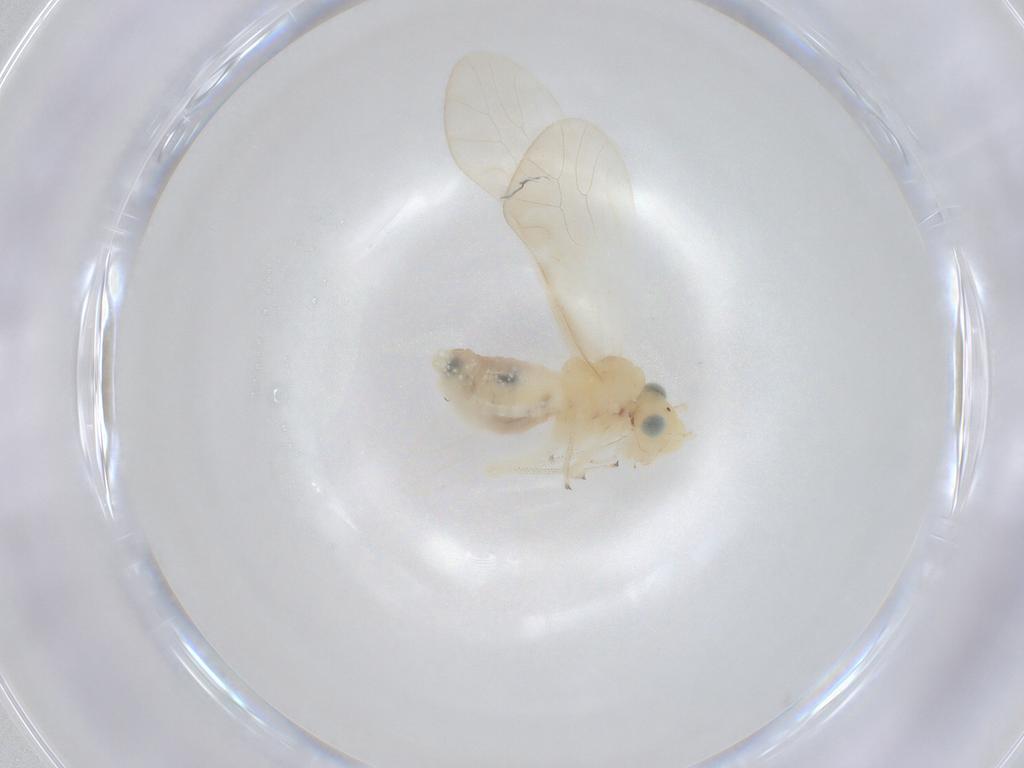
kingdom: Animalia
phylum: Arthropoda
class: Insecta
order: Psocodea
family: Caeciliusidae
